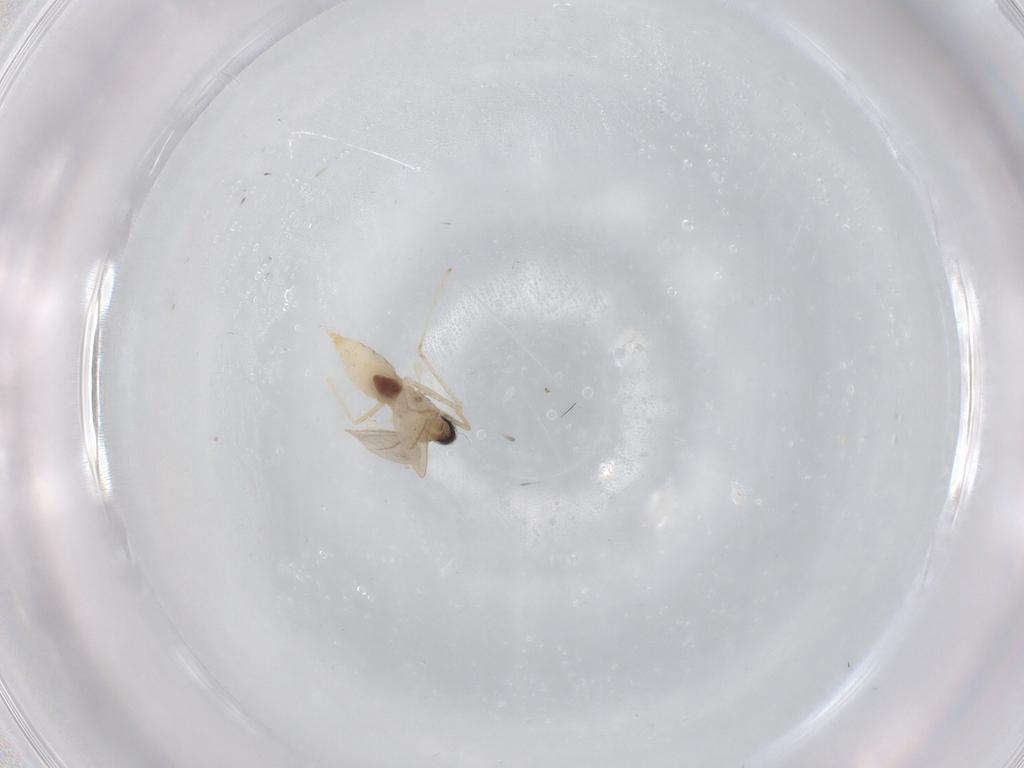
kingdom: Animalia
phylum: Arthropoda
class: Insecta
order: Diptera
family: Cecidomyiidae
